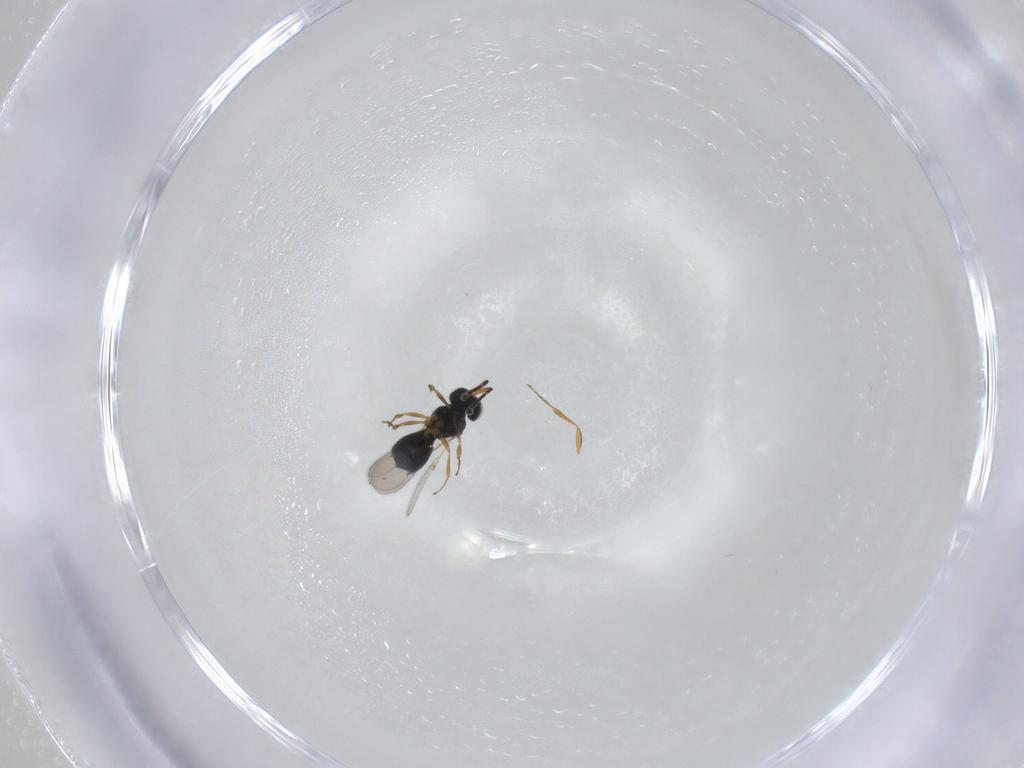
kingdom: Animalia
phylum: Arthropoda
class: Insecta
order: Hymenoptera
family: Scelionidae
